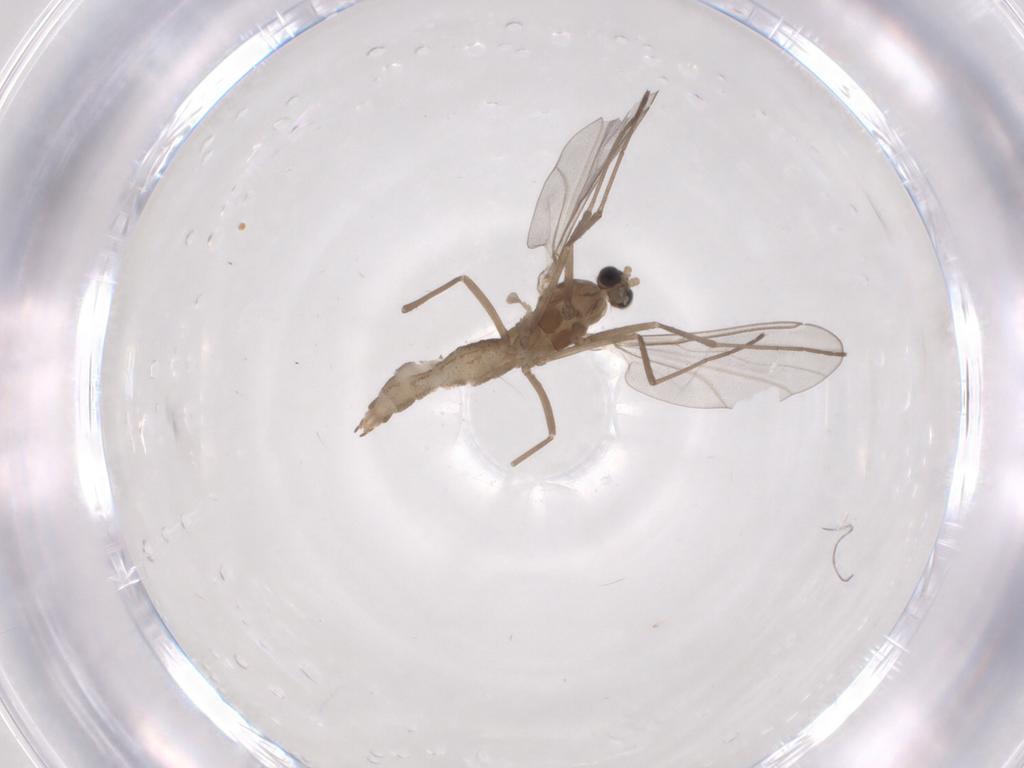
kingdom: Animalia
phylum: Arthropoda
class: Insecta
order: Diptera
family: Cecidomyiidae
